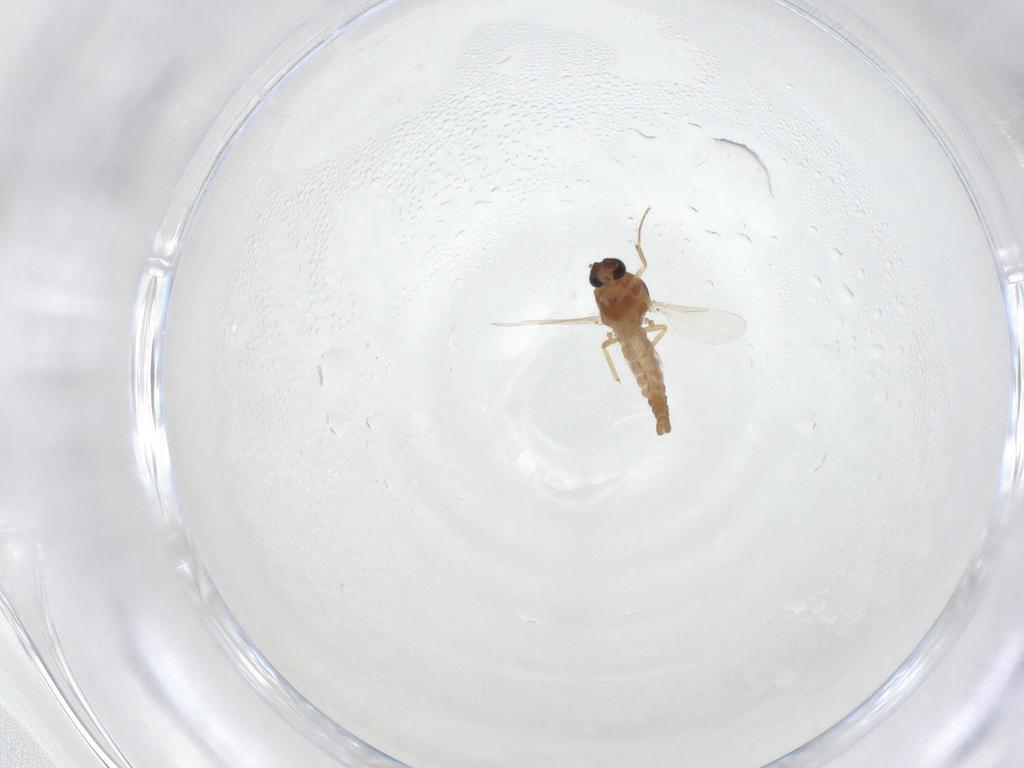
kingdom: Animalia
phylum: Arthropoda
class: Insecta
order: Diptera
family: Ceratopogonidae
